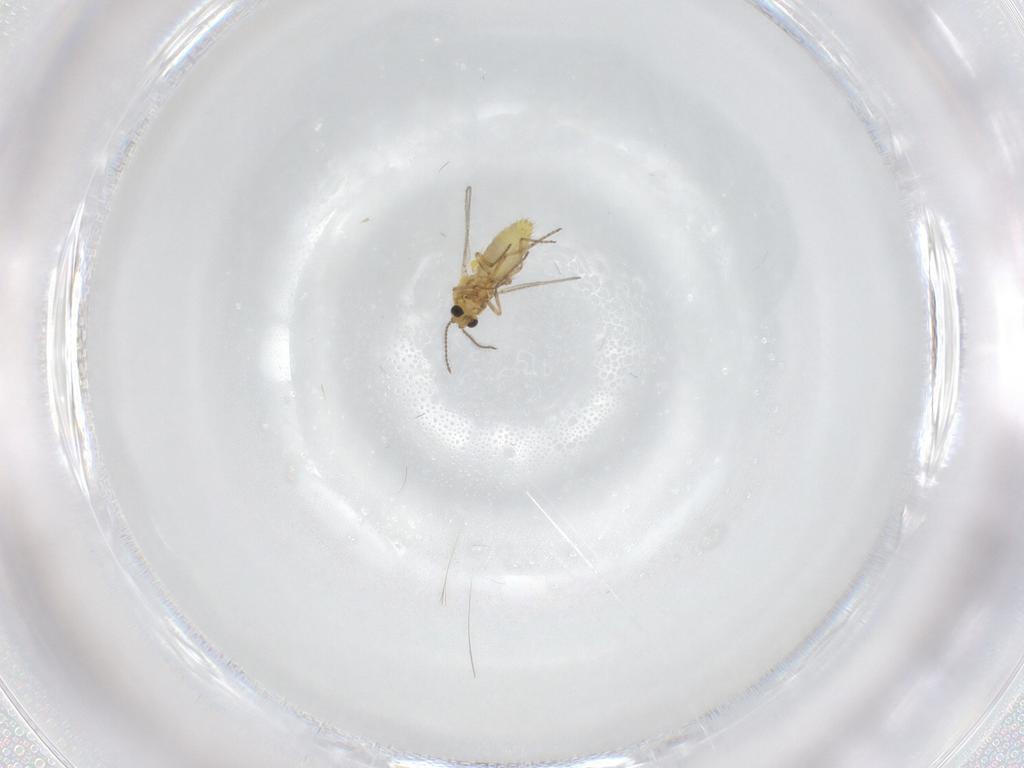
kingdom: Animalia
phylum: Arthropoda
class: Insecta
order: Diptera
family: Ceratopogonidae
